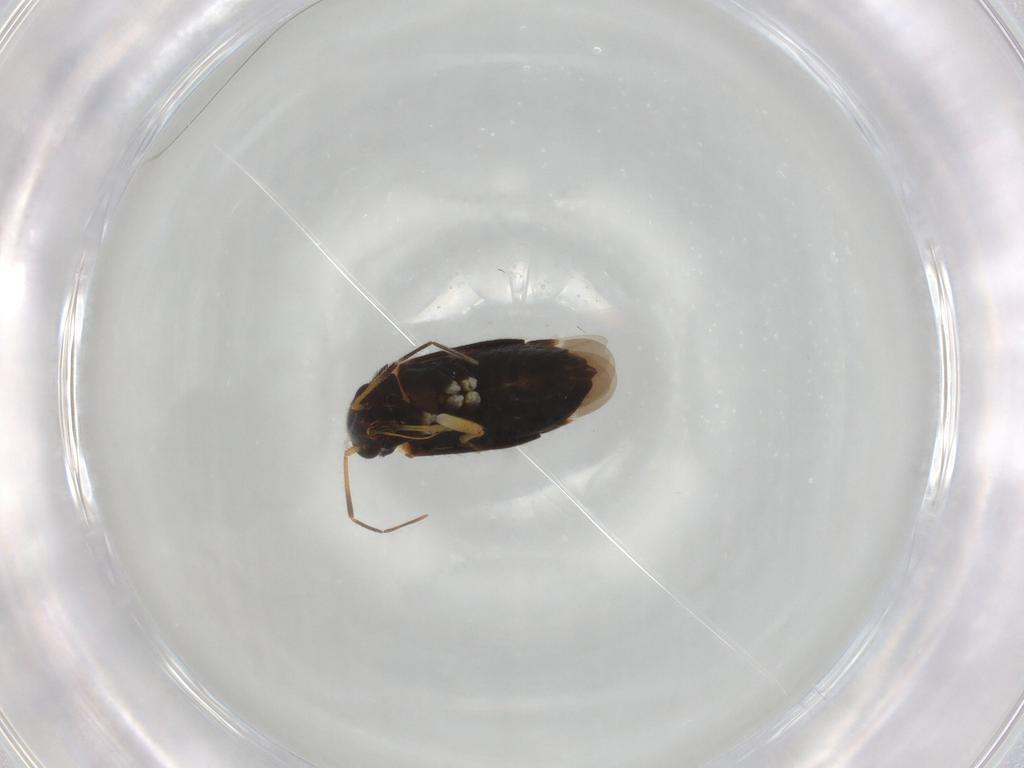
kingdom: Animalia
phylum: Arthropoda
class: Insecta
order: Hemiptera
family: Miridae
